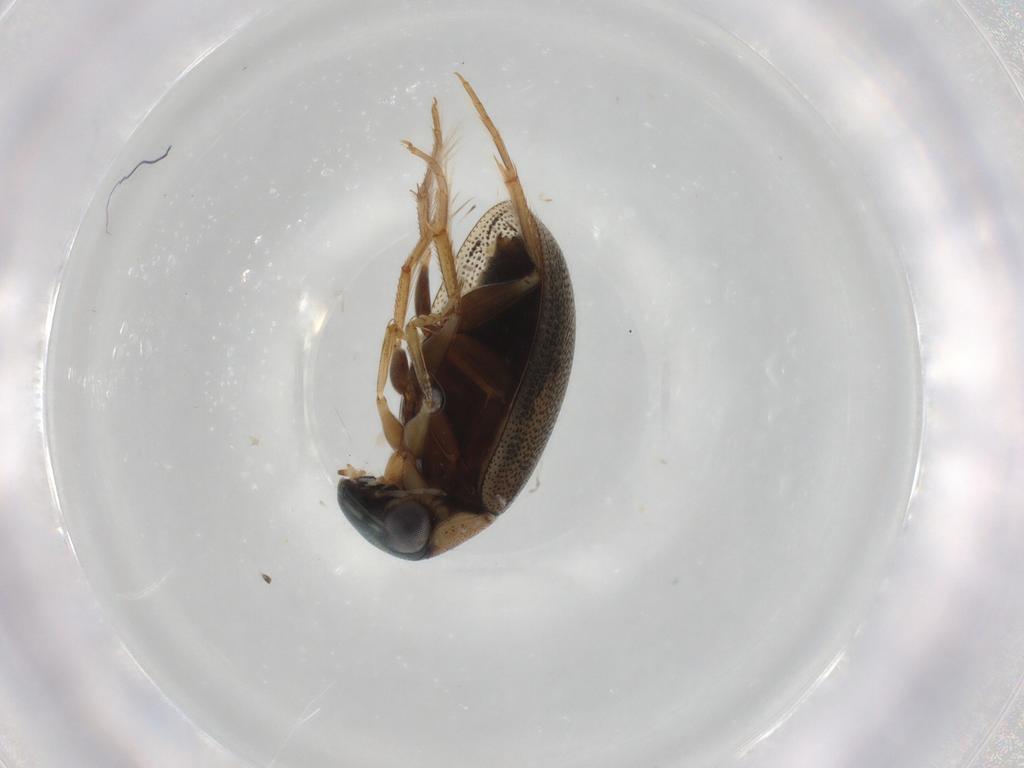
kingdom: Animalia
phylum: Arthropoda
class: Insecta
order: Coleoptera
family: Hydrophilidae
